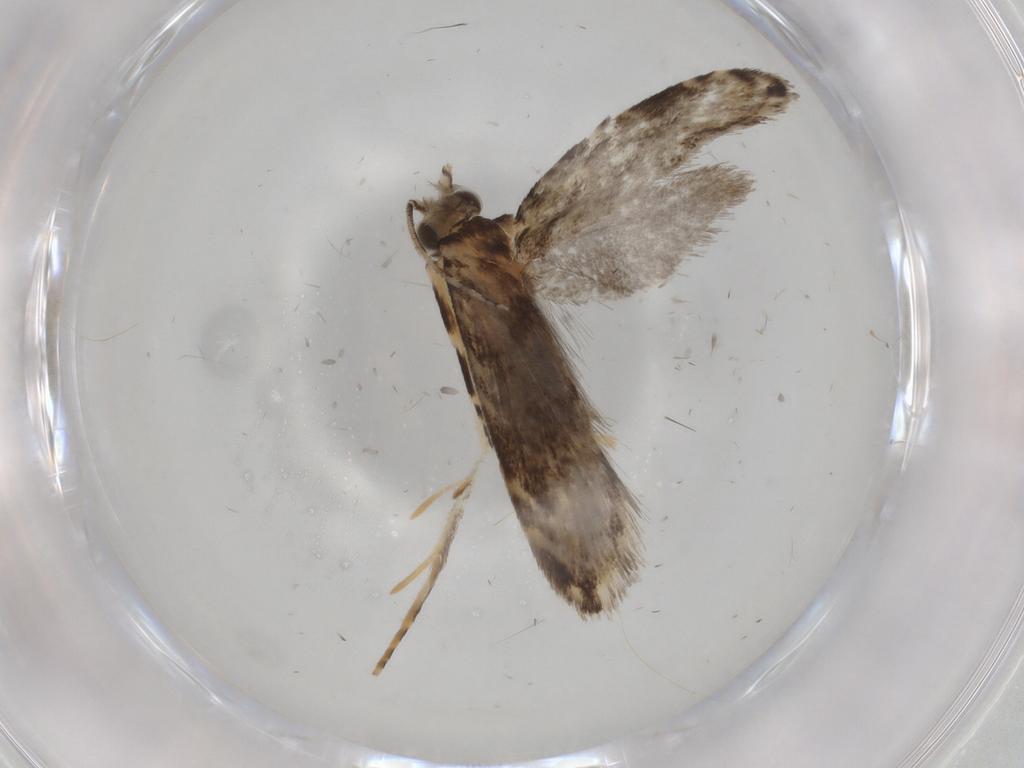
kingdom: Animalia
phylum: Arthropoda
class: Insecta
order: Lepidoptera
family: Tineidae
